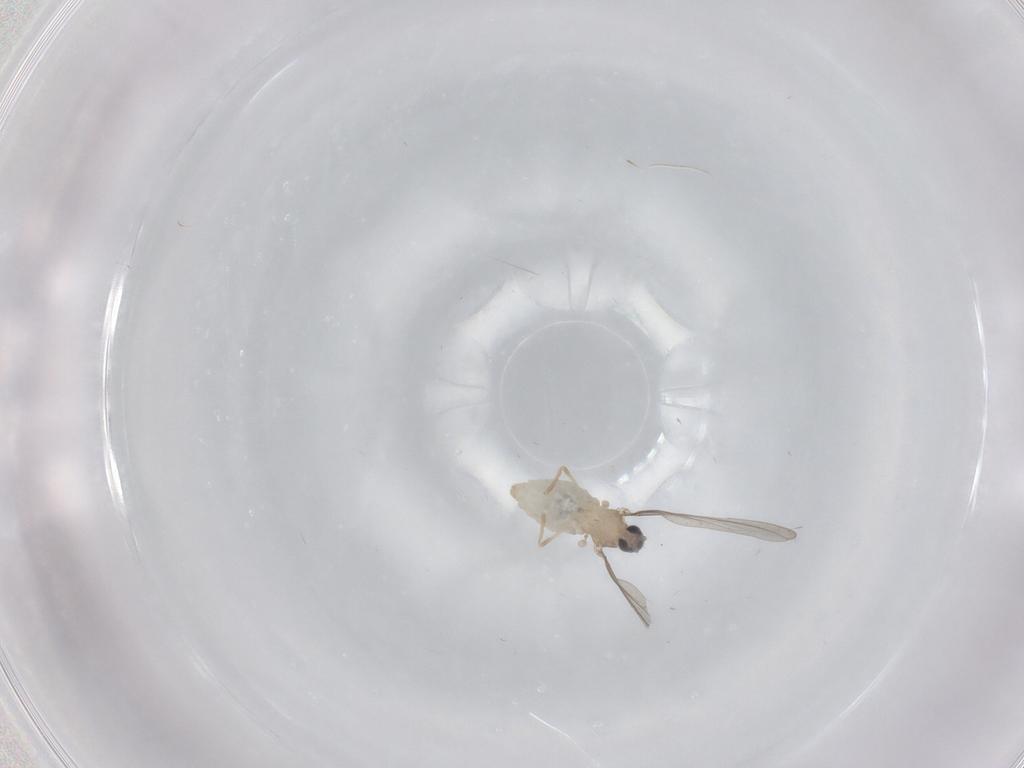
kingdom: Animalia
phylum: Arthropoda
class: Insecta
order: Diptera
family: Cecidomyiidae
